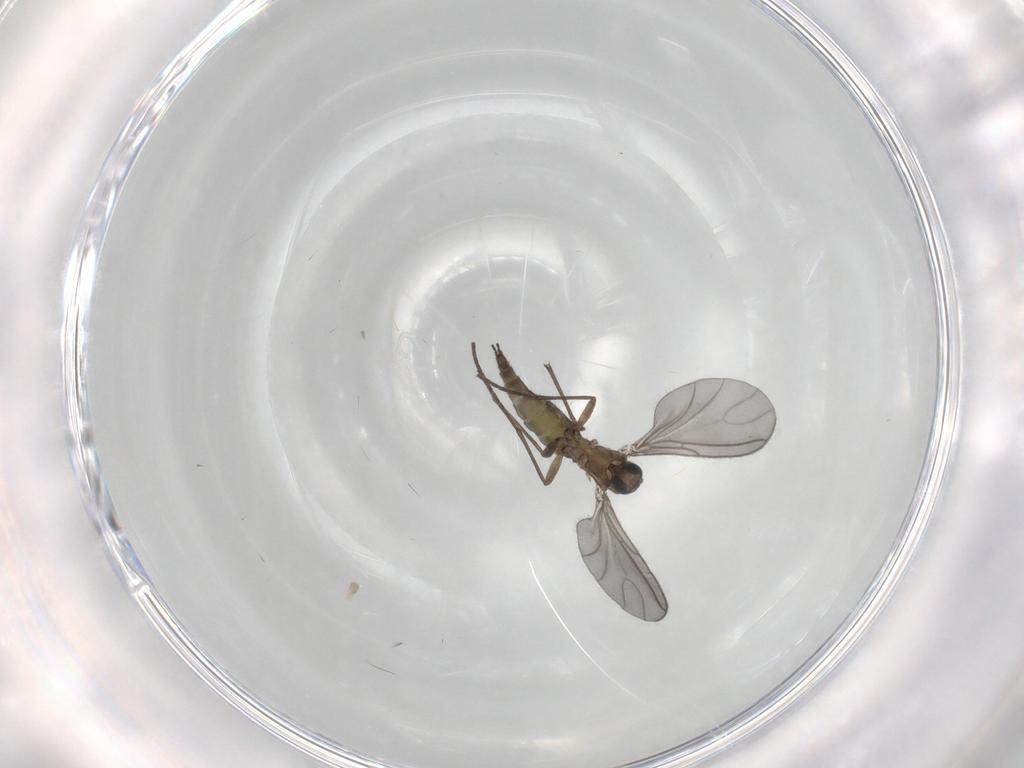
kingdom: Animalia
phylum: Arthropoda
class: Insecta
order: Diptera
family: Sciaridae
